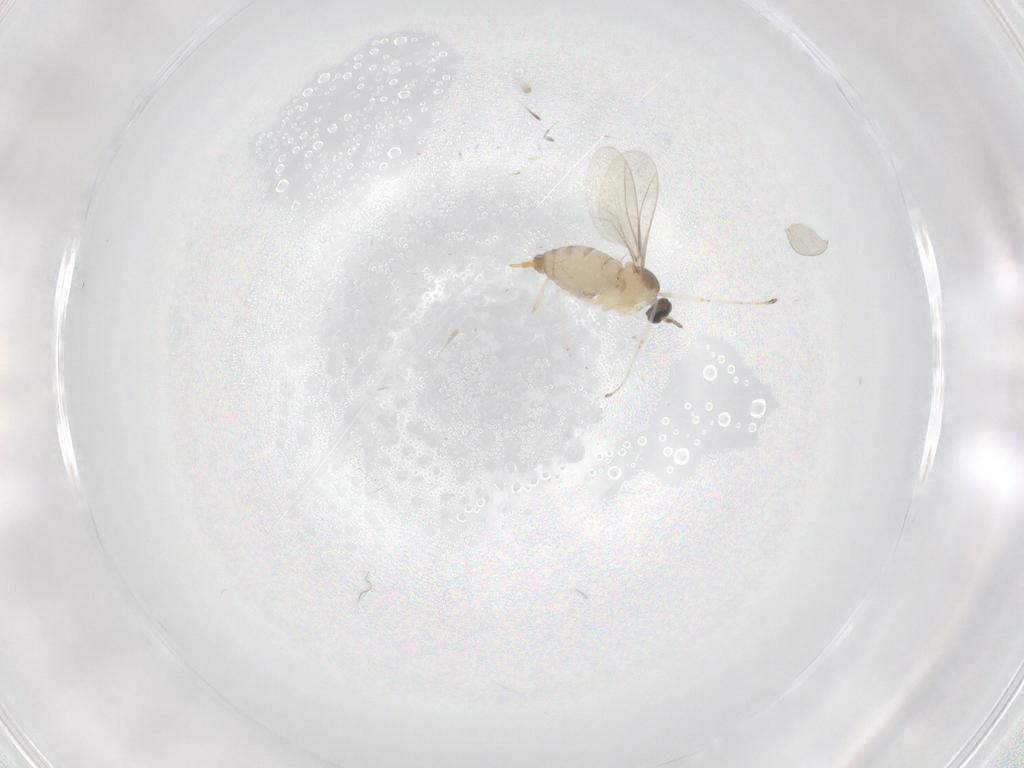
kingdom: Animalia
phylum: Arthropoda
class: Insecta
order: Diptera
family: Cecidomyiidae
